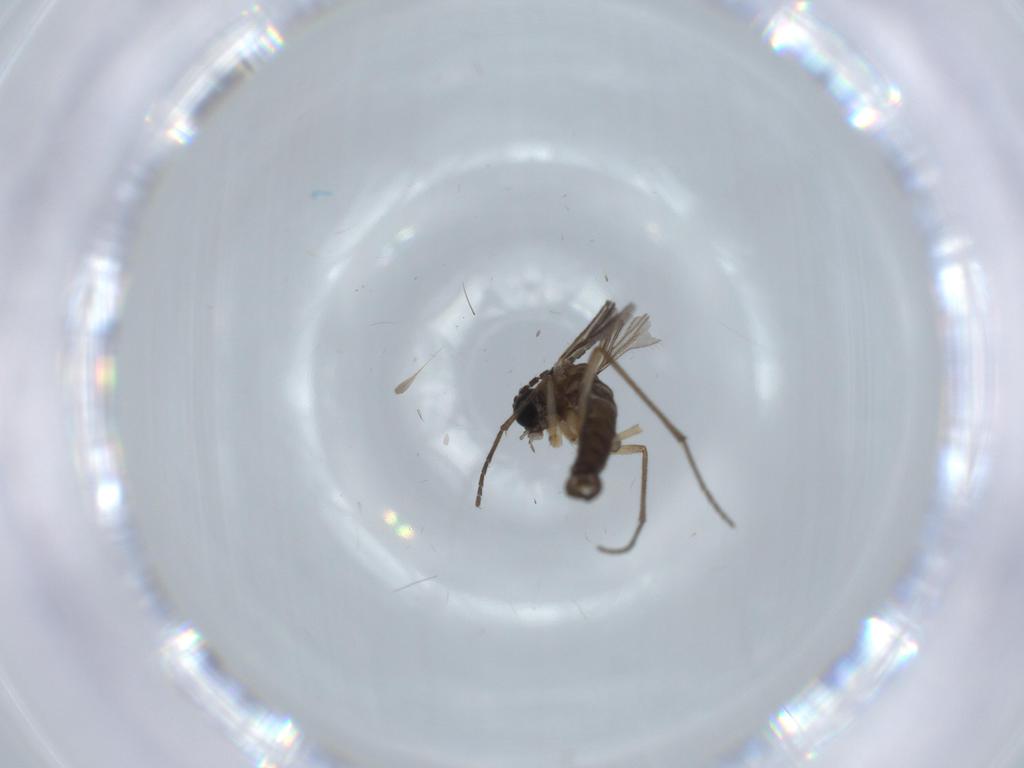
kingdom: Animalia
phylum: Arthropoda
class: Insecta
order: Diptera
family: Sciaridae
